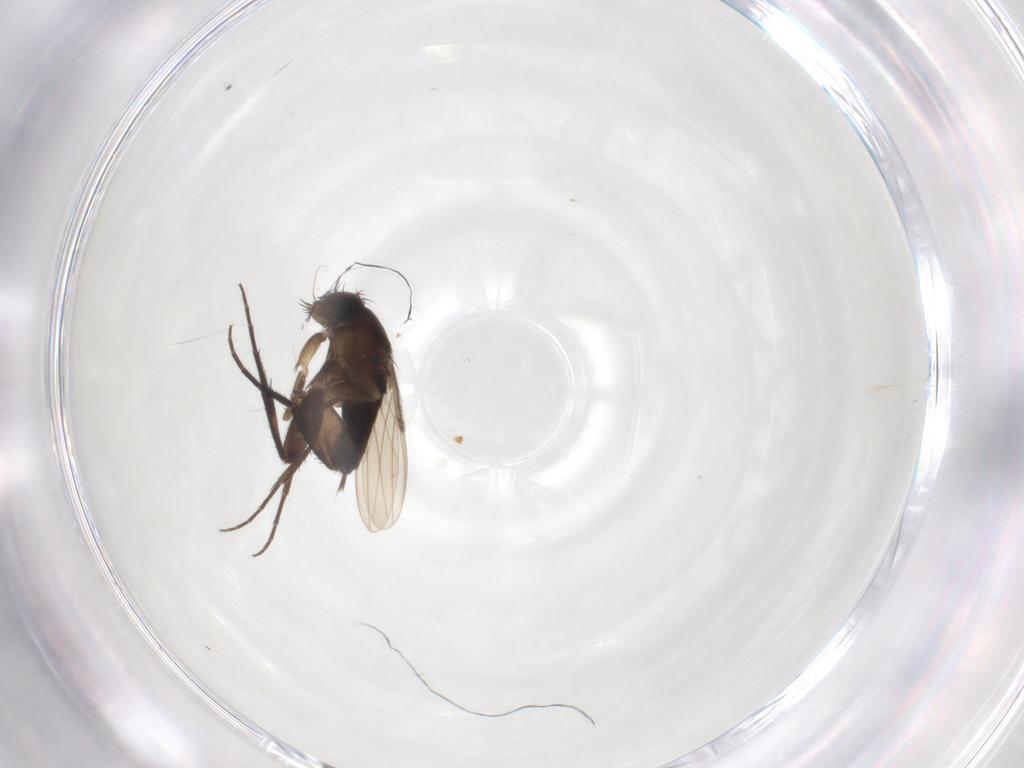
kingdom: Animalia
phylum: Arthropoda
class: Insecta
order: Diptera
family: Phoridae
